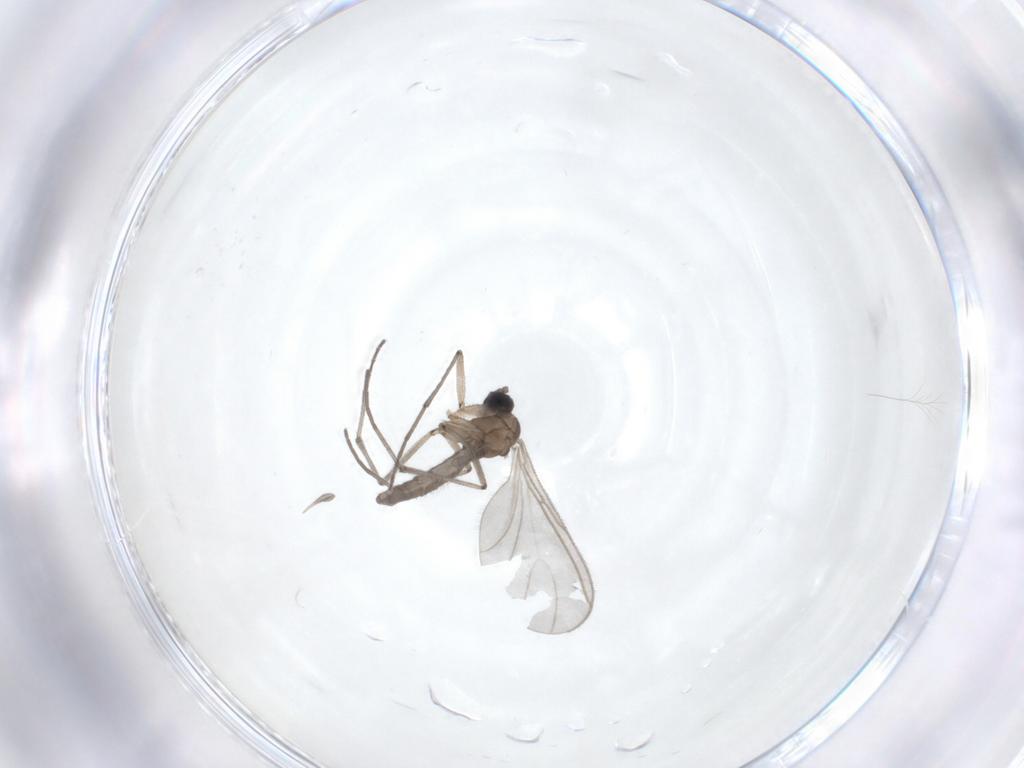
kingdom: Animalia
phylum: Arthropoda
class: Insecta
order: Diptera
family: Sciaridae
